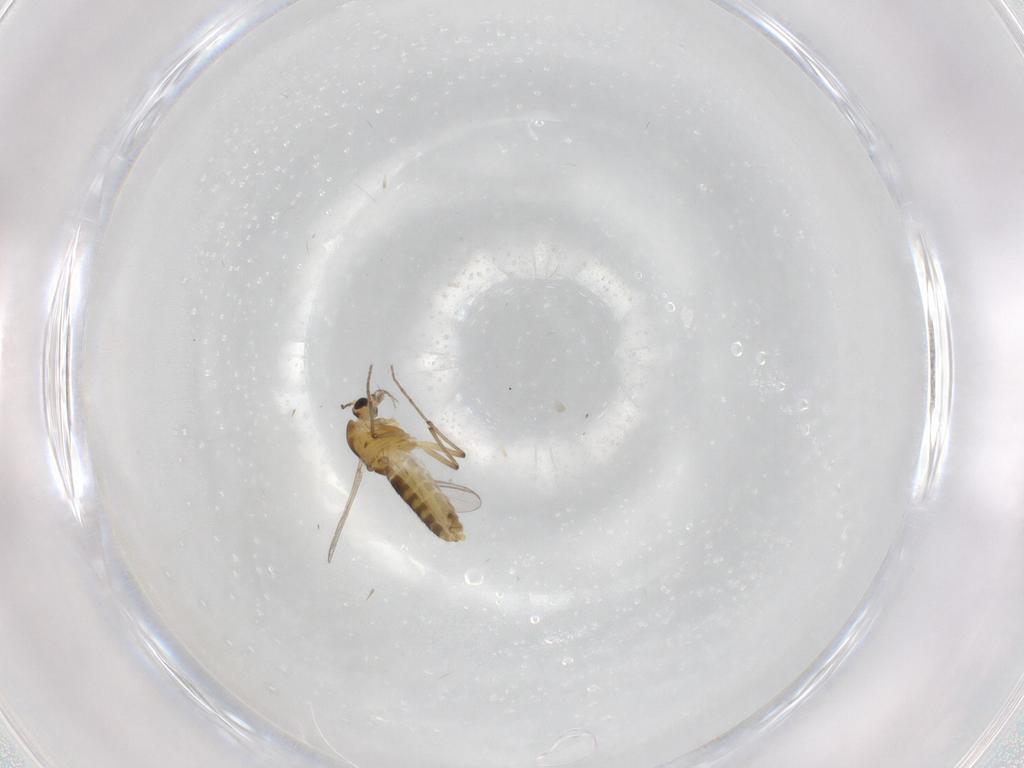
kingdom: Animalia
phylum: Arthropoda
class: Insecta
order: Diptera
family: Chironomidae
